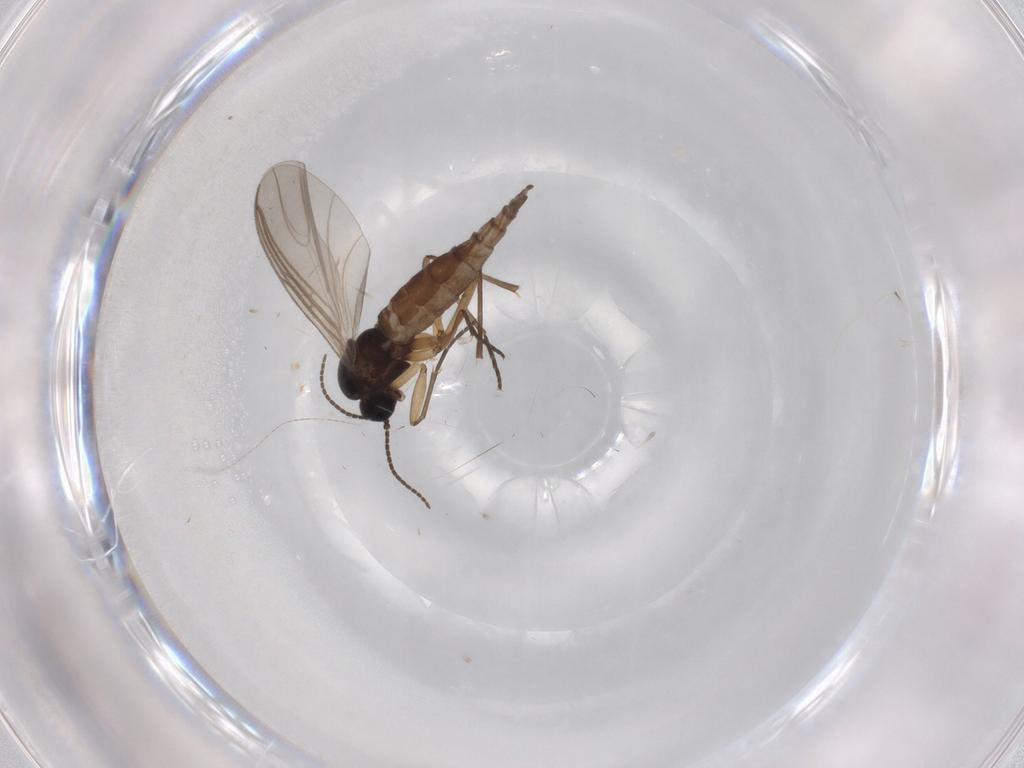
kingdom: Animalia
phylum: Arthropoda
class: Insecta
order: Diptera
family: Sciaridae
